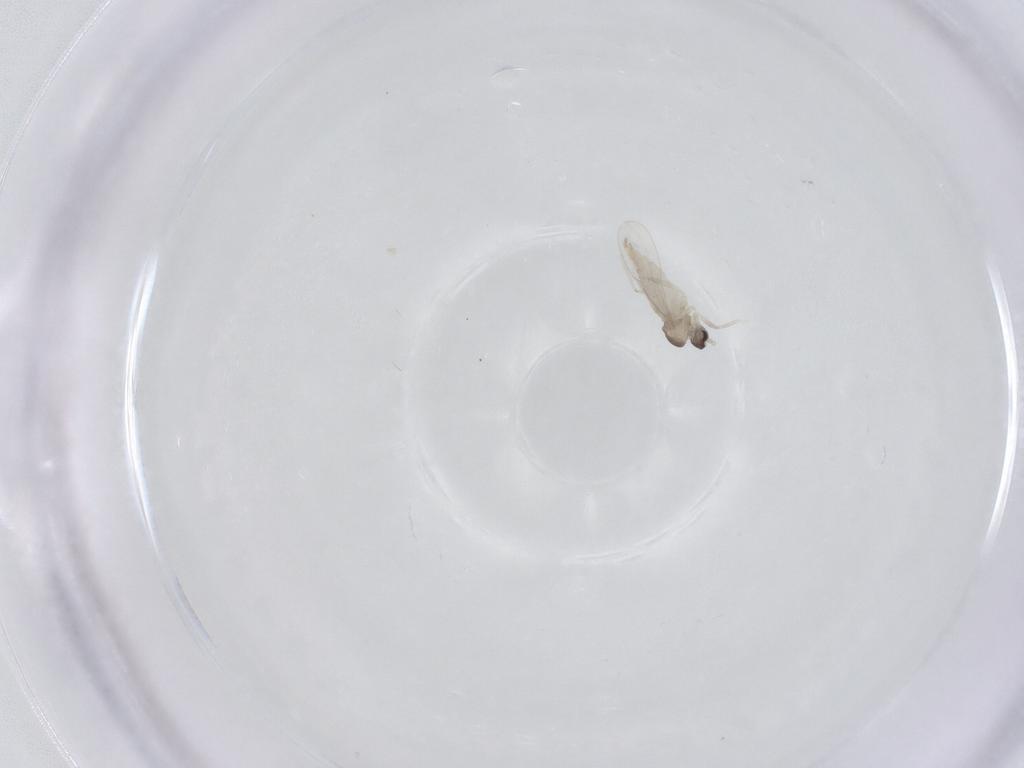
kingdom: Animalia
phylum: Arthropoda
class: Insecta
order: Diptera
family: Cecidomyiidae
